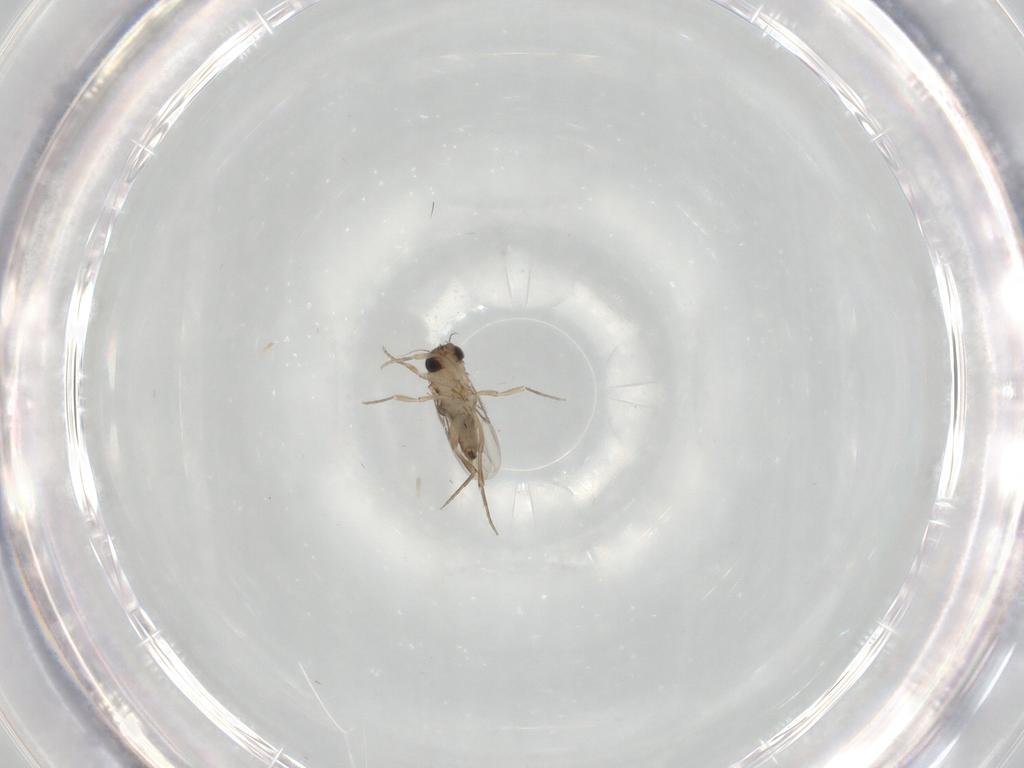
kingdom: Animalia
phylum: Arthropoda
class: Insecta
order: Diptera
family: Phoridae
